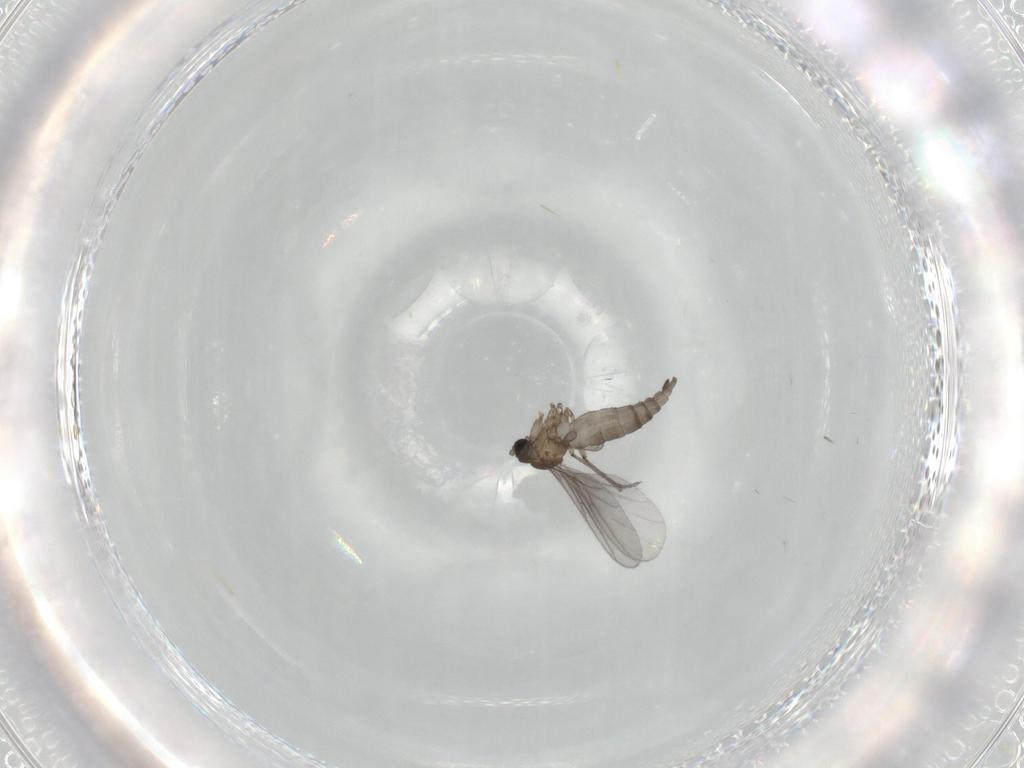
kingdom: Animalia
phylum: Arthropoda
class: Insecta
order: Diptera
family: Sciaridae
